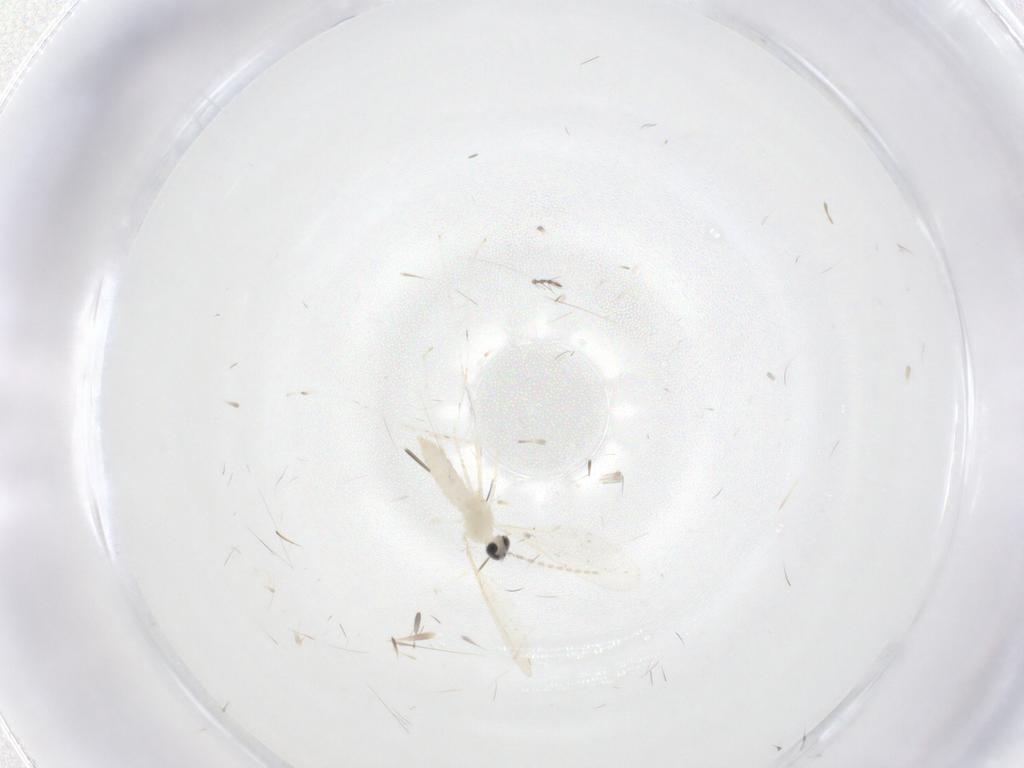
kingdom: Animalia
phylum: Arthropoda
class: Insecta
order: Diptera
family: Cecidomyiidae
